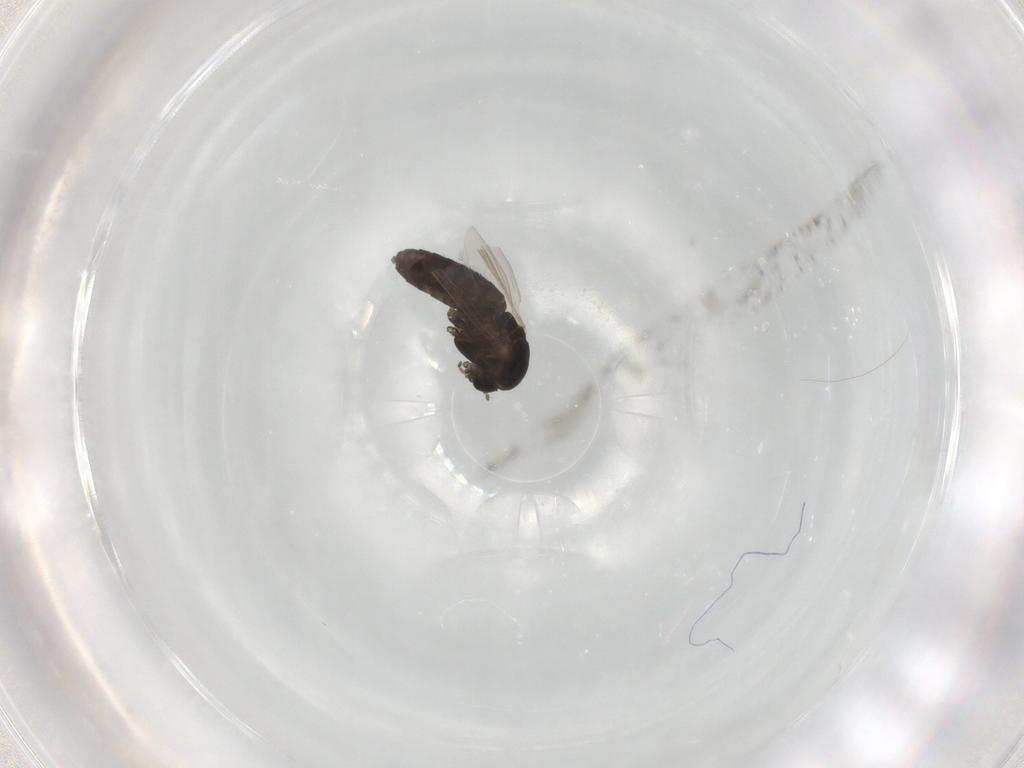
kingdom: Animalia
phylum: Arthropoda
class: Insecta
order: Diptera
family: Chironomidae
